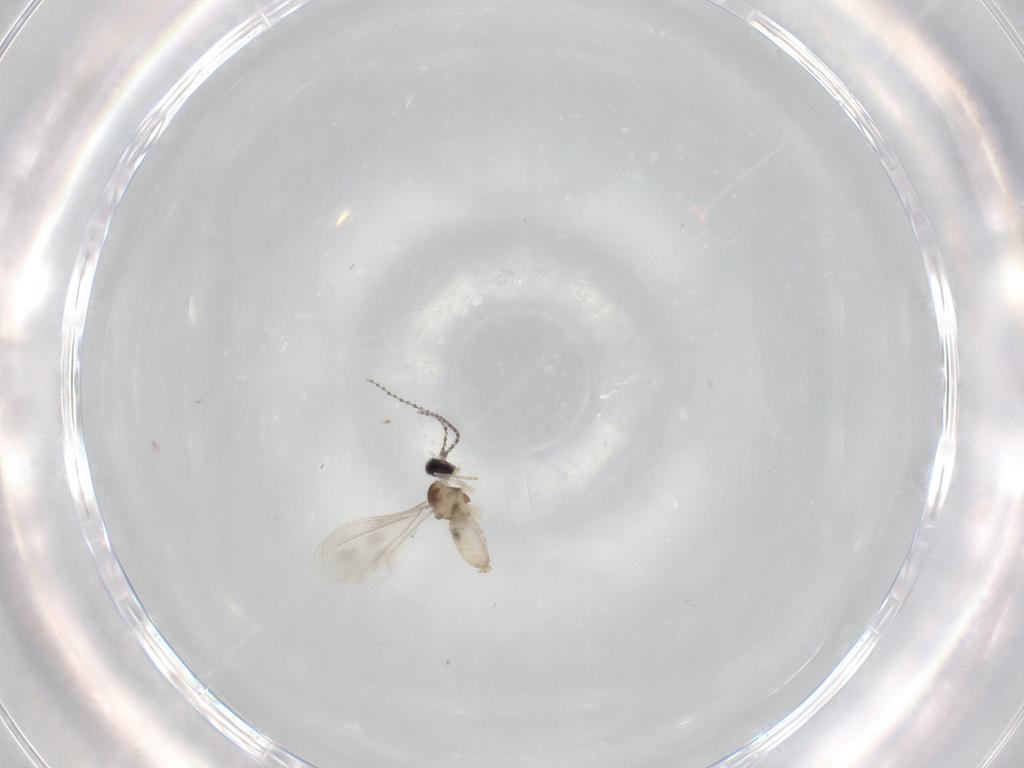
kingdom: Animalia
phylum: Arthropoda
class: Insecta
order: Diptera
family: Cecidomyiidae
